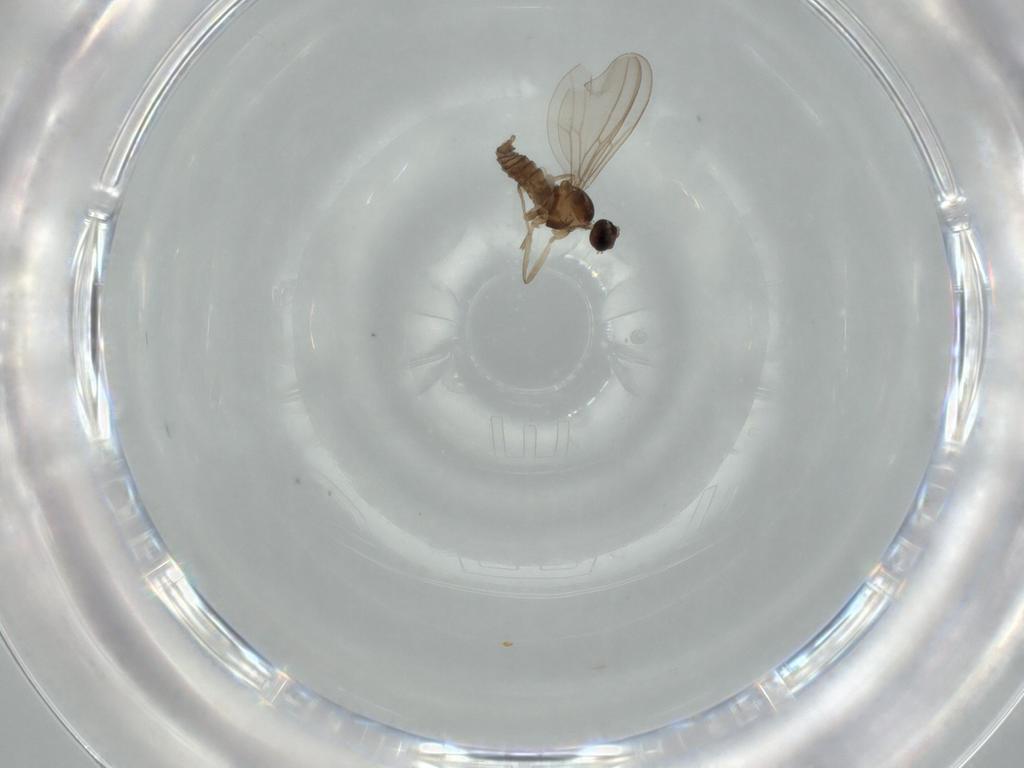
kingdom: Animalia
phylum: Arthropoda
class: Insecta
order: Diptera
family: Cecidomyiidae
